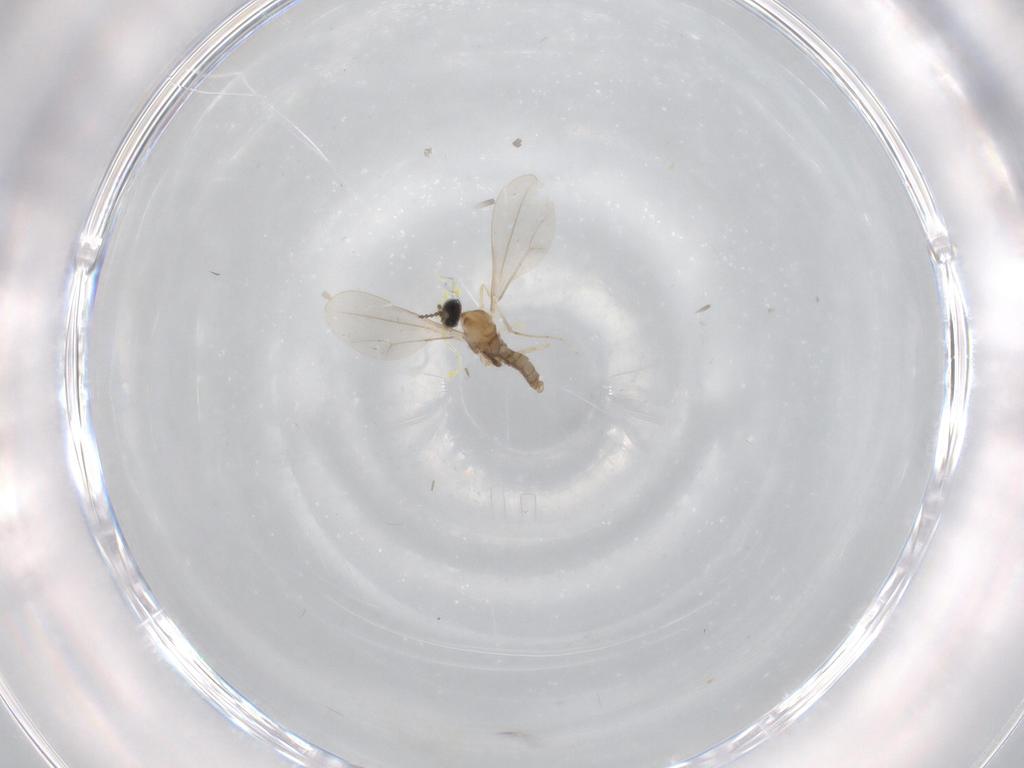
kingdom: Animalia
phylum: Arthropoda
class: Insecta
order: Diptera
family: Cecidomyiidae
